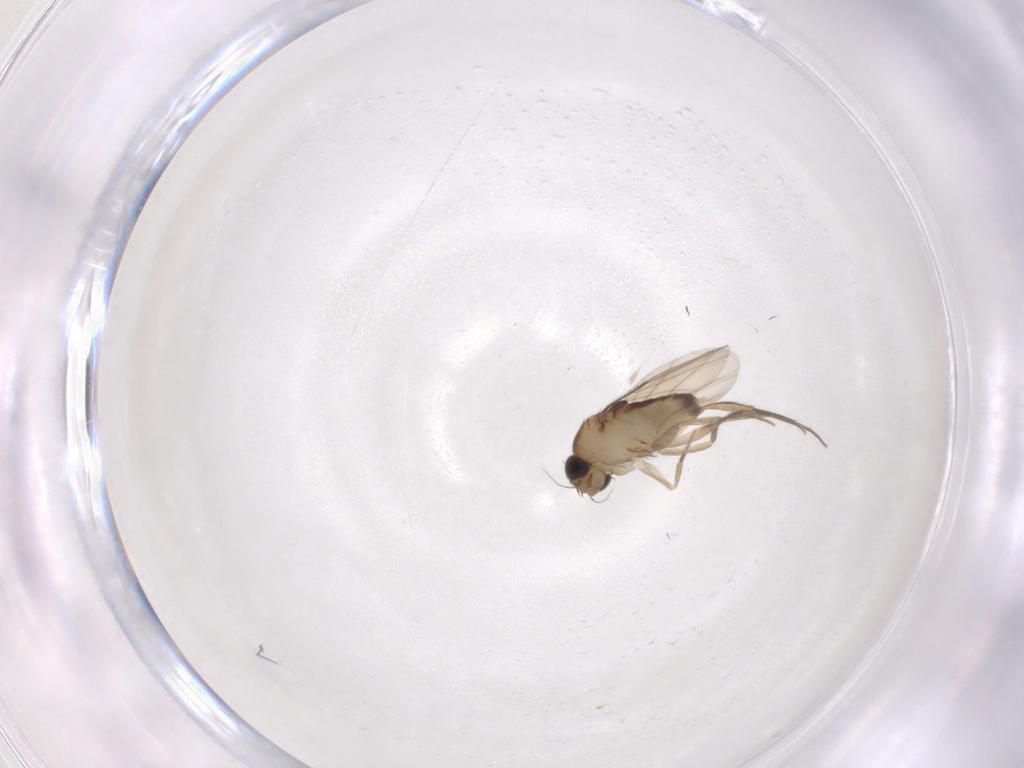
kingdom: Animalia
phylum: Arthropoda
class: Insecta
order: Diptera
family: Phoridae
